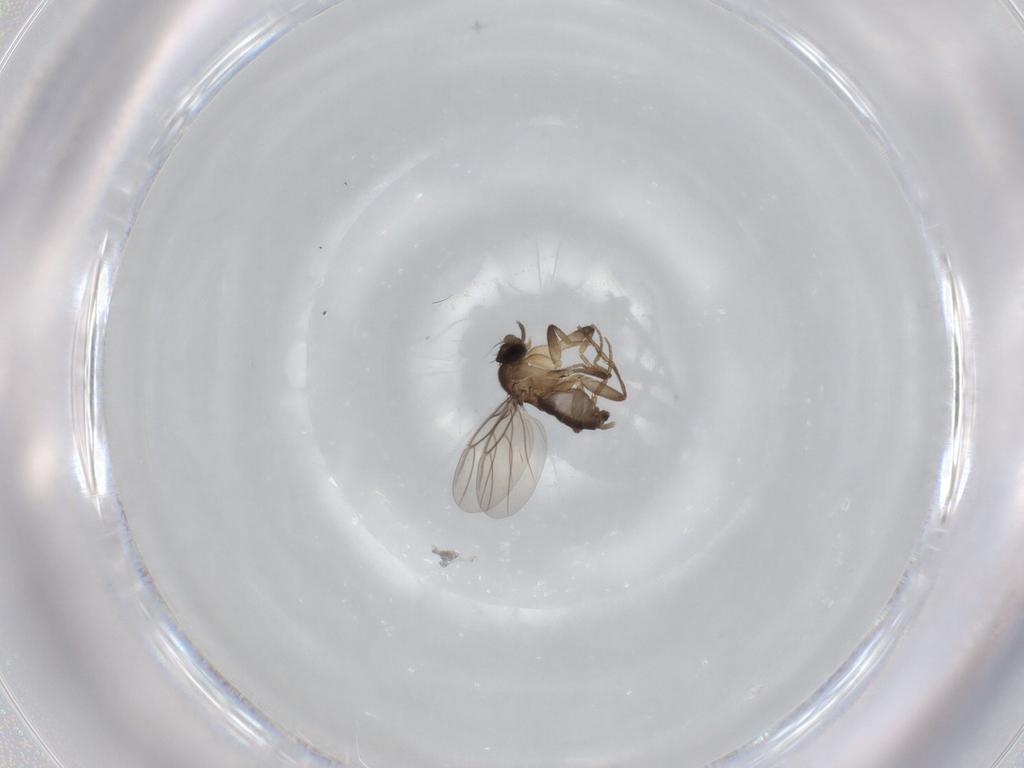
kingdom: Animalia
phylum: Arthropoda
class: Insecta
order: Diptera
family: Phoridae
